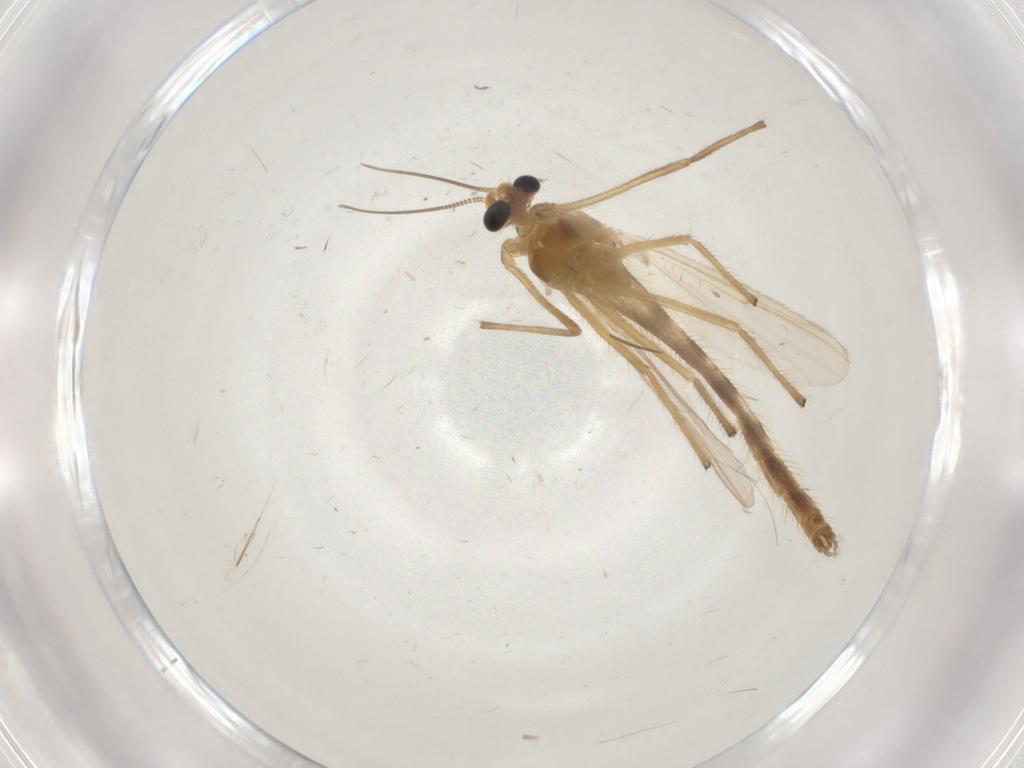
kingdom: Animalia
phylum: Arthropoda
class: Insecta
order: Diptera
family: Chironomidae
